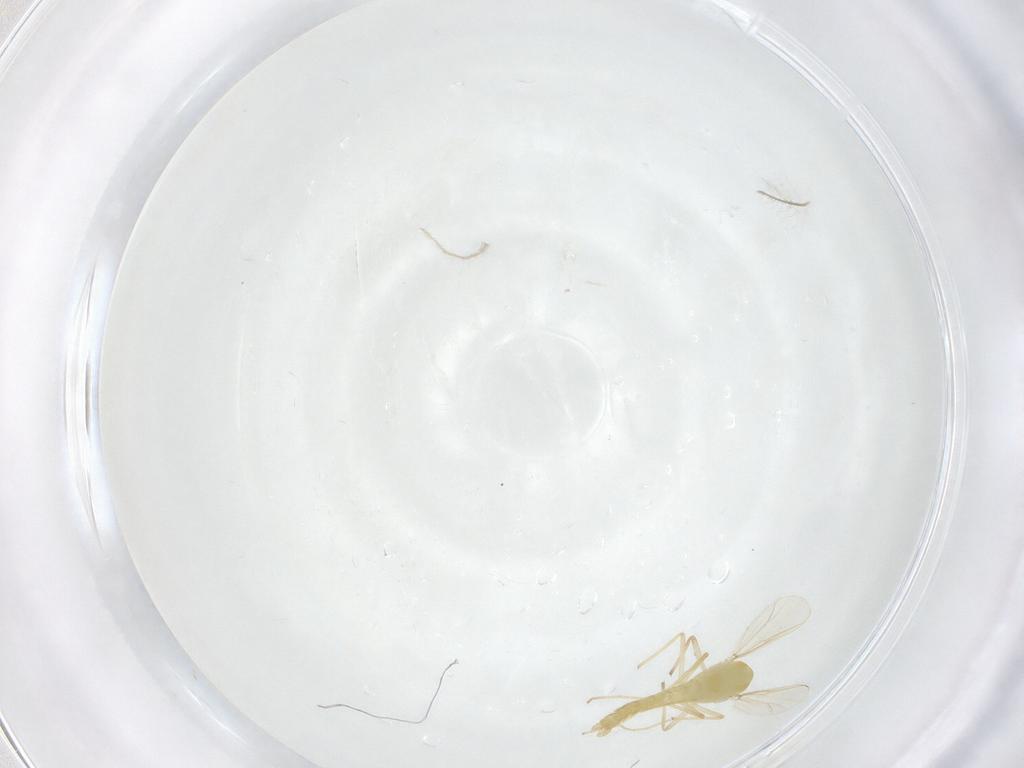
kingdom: Animalia
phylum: Arthropoda
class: Insecta
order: Diptera
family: Chironomidae
